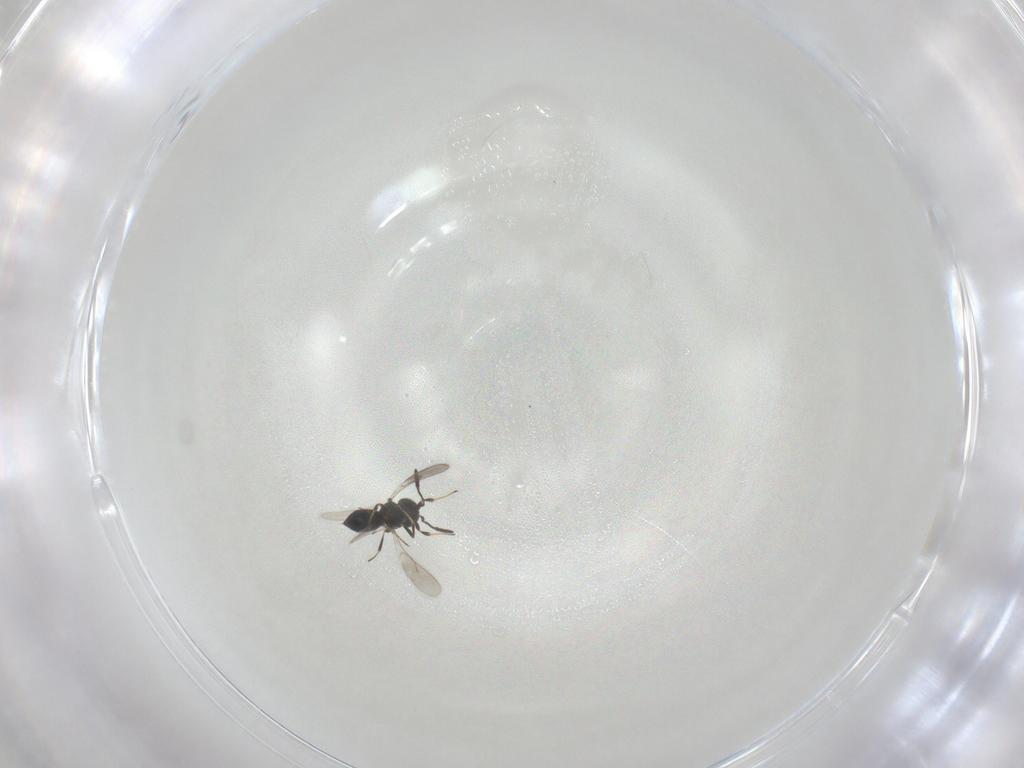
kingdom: Animalia
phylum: Arthropoda
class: Insecta
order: Hymenoptera
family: Scelionidae
